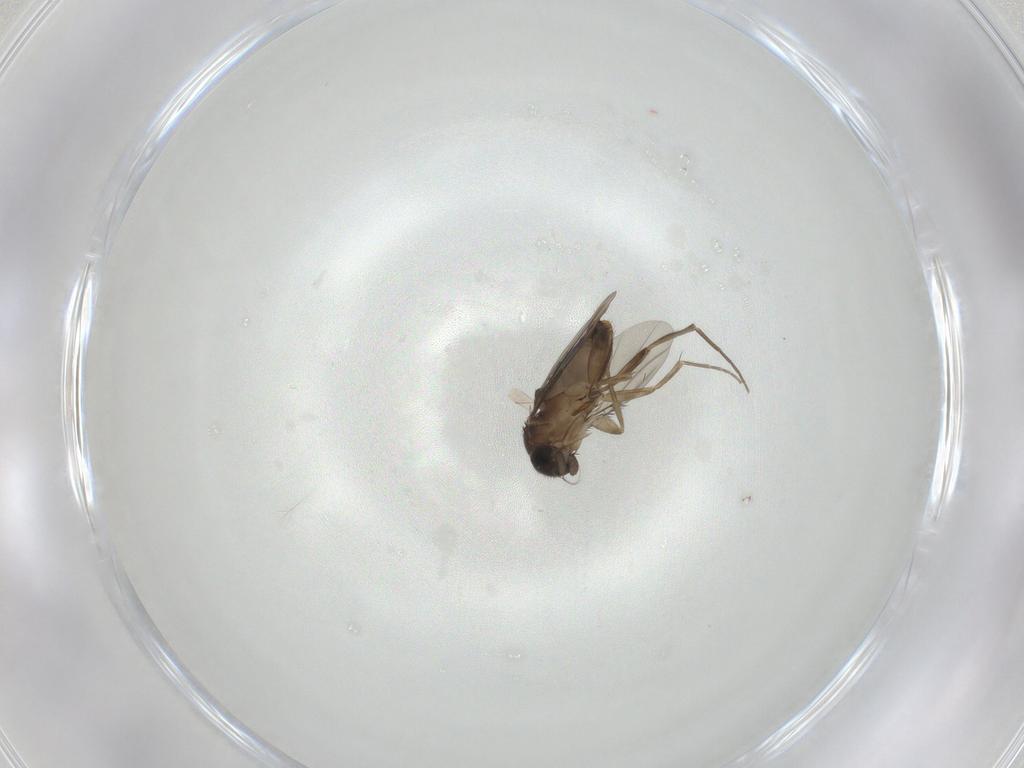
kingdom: Animalia
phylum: Arthropoda
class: Insecta
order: Diptera
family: Phoridae
